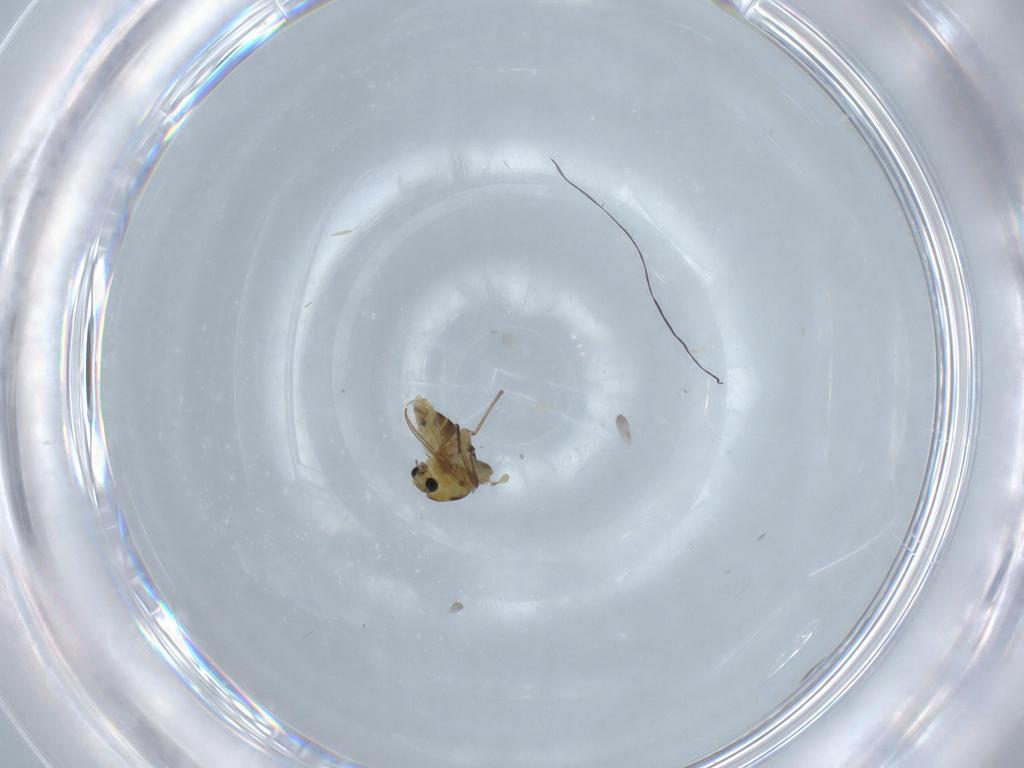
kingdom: Animalia
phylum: Arthropoda
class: Insecta
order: Diptera
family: Chironomidae
